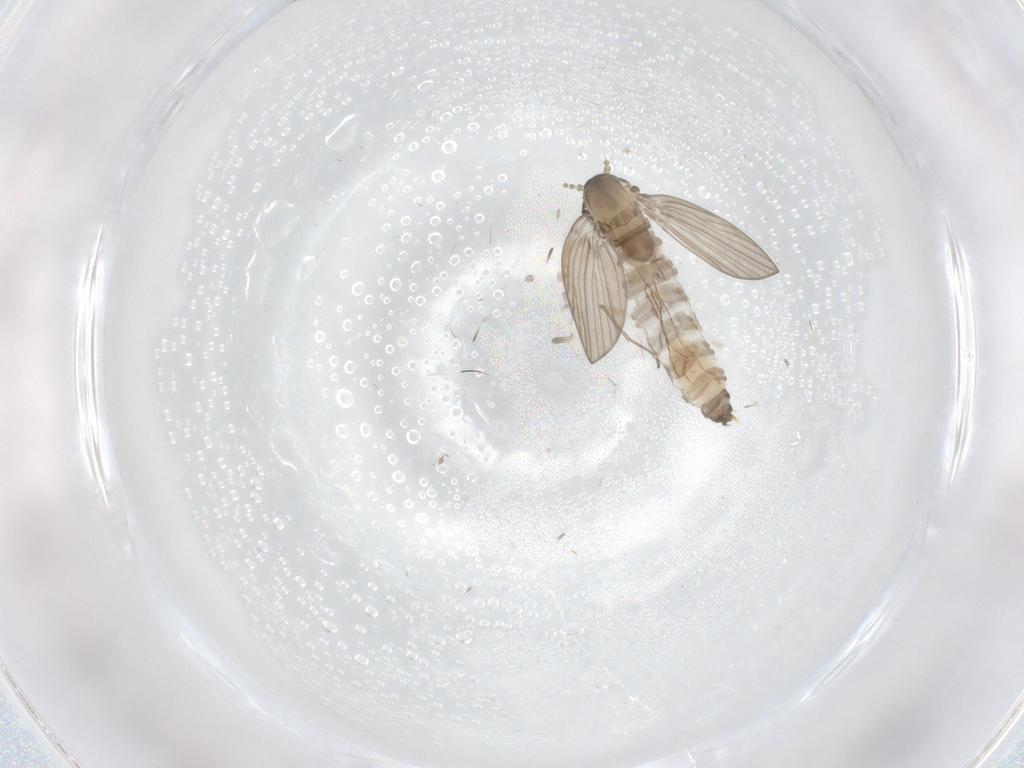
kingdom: Animalia
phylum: Arthropoda
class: Insecta
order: Diptera
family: Psychodidae
